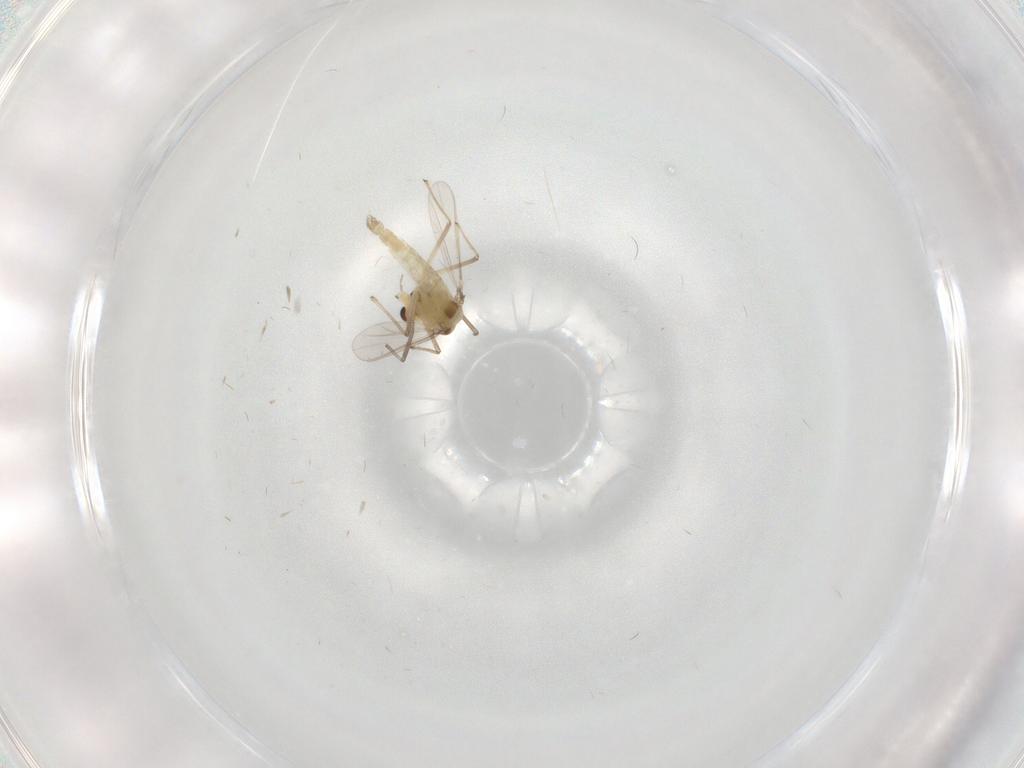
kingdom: Animalia
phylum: Arthropoda
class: Insecta
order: Diptera
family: Chironomidae
